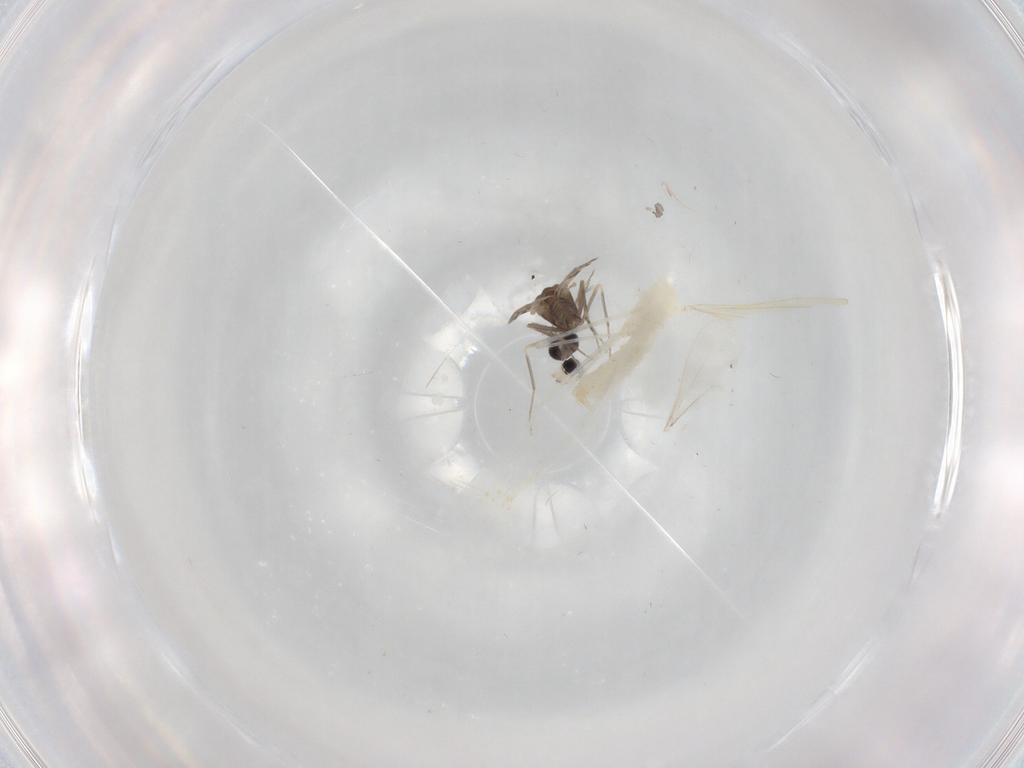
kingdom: Animalia
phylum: Arthropoda
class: Insecta
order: Diptera
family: Ceratopogonidae
